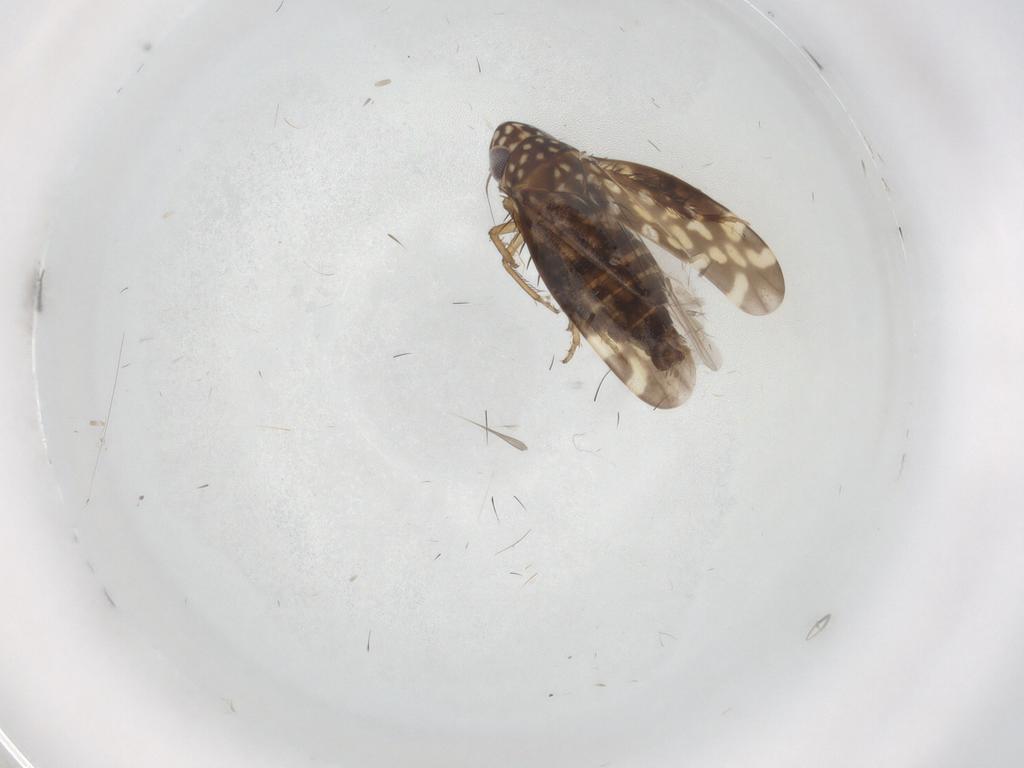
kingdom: Animalia
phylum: Arthropoda
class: Insecta
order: Hemiptera
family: Cicadellidae
